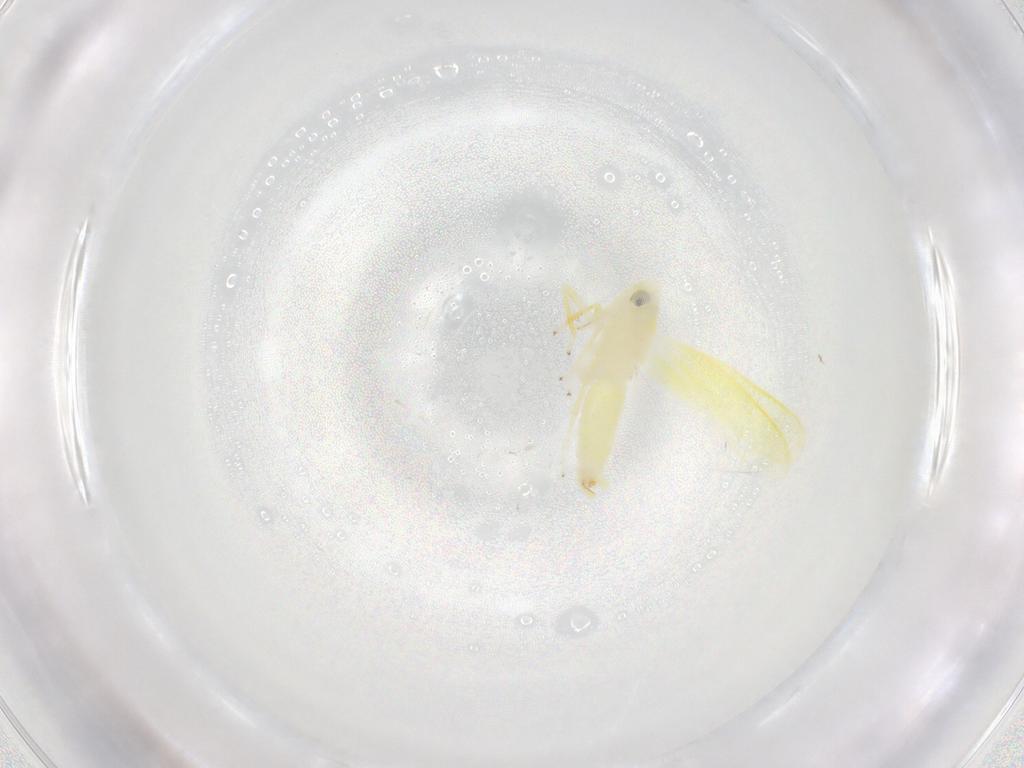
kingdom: Animalia
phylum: Arthropoda
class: Insecta
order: Hemiptera
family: Cicadellidae
